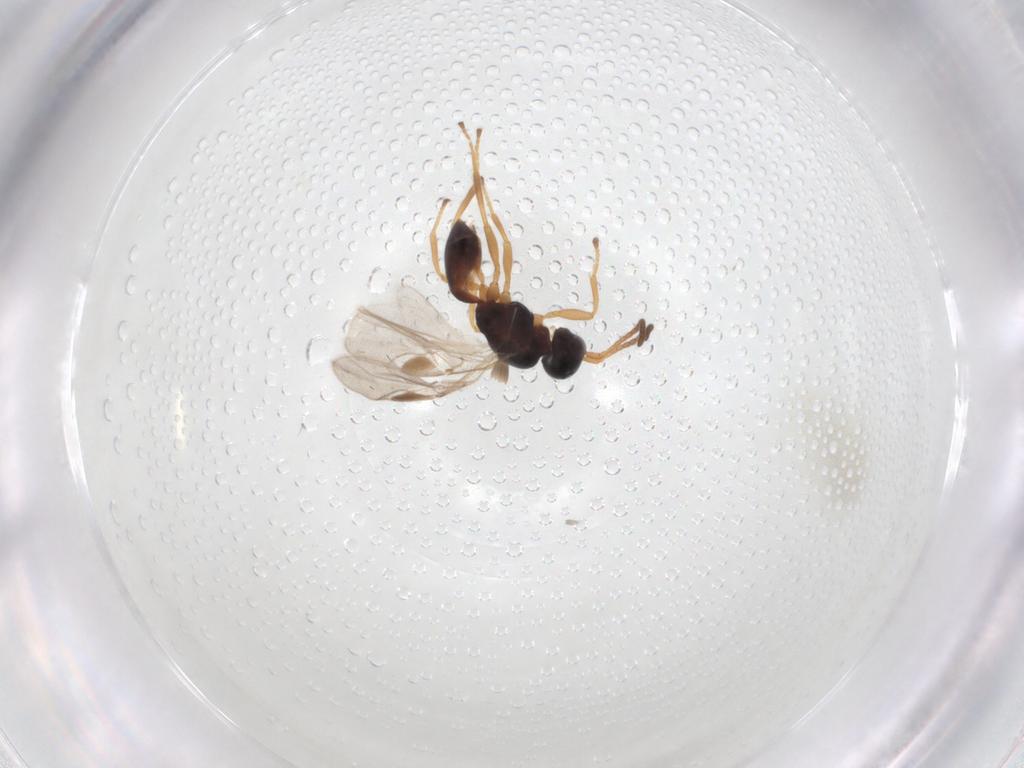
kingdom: Animalia
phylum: Arthropoda
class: Insecta
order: Hymenoptera
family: Braconidae
